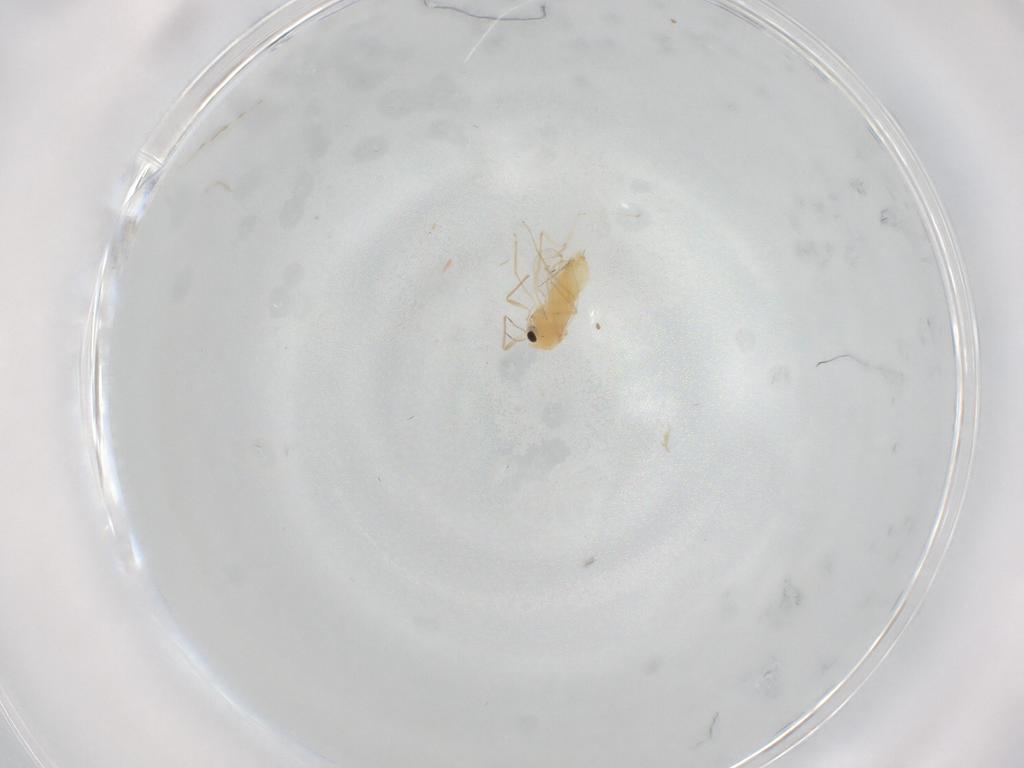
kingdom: Animalia
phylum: Arthropoda
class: Insecta
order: Diptera
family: Chironomidae
